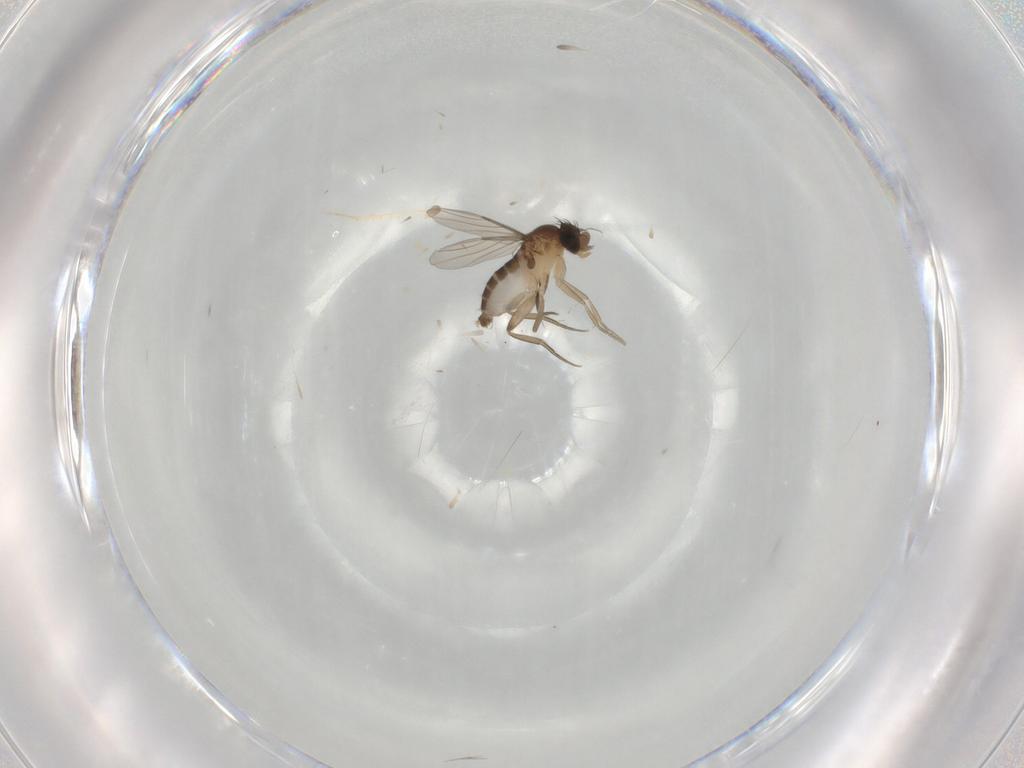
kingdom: Animalia
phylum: Arthropoda
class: Insecta
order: Diptera
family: Phoridae
